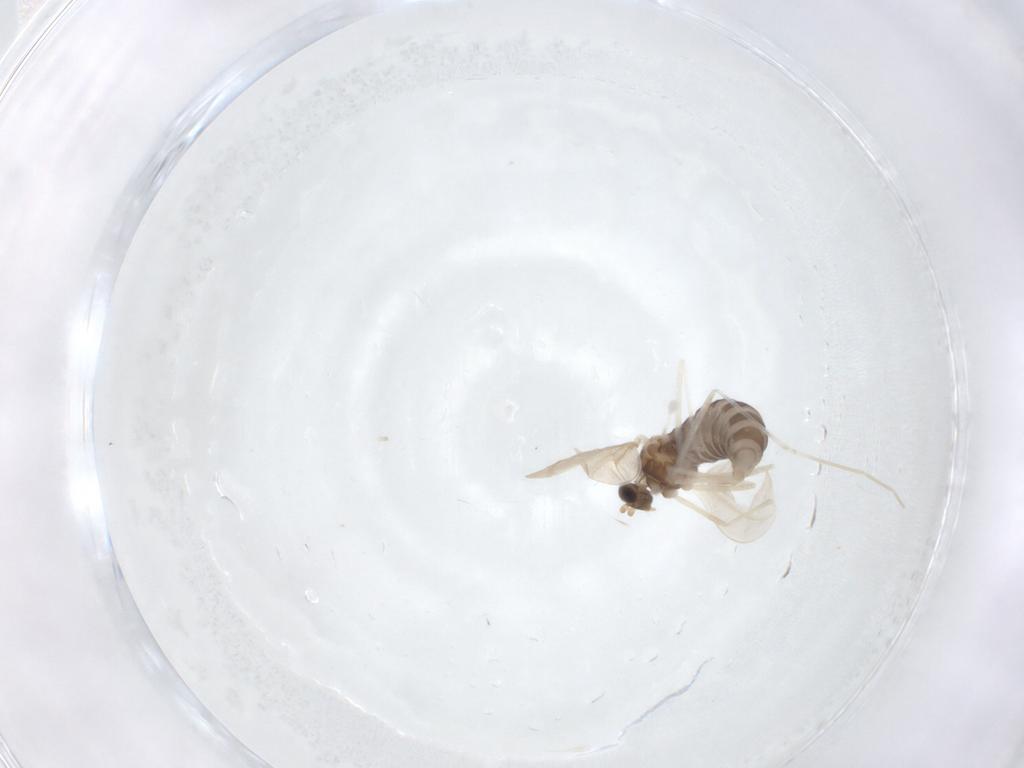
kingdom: Animalia
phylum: Arthropoda
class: Insecta
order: Diptera
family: Cecidomyiidae
